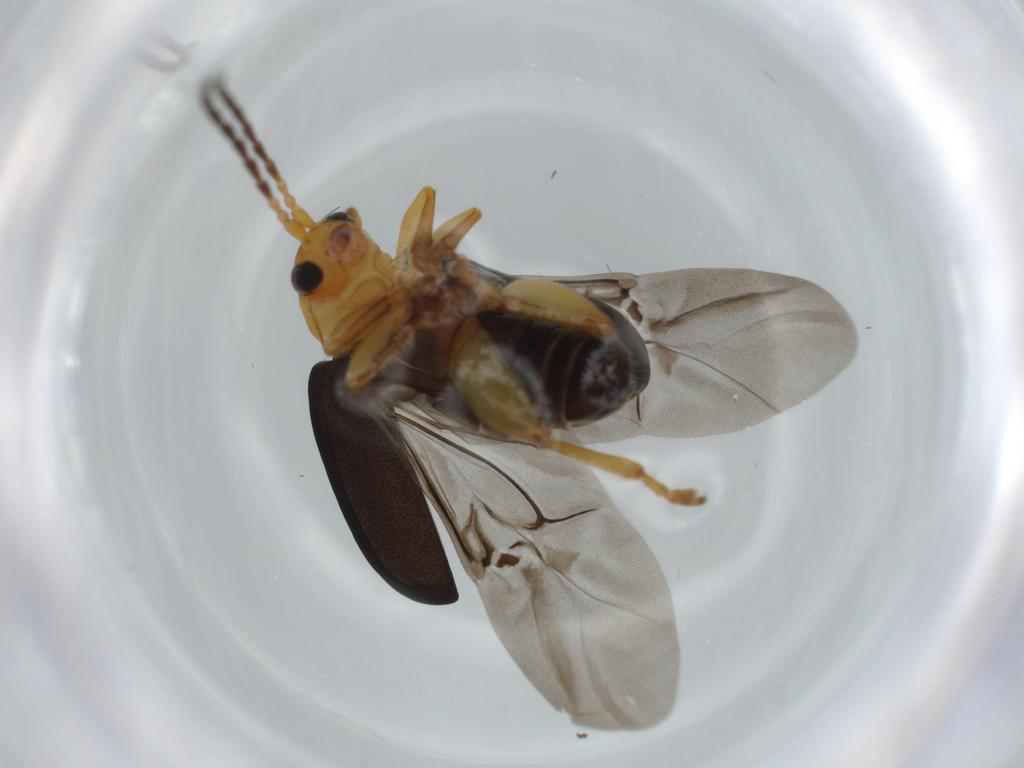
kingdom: Animalia
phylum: Arthropoda
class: Insecta
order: Coleoptera
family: Chrysomelidae
